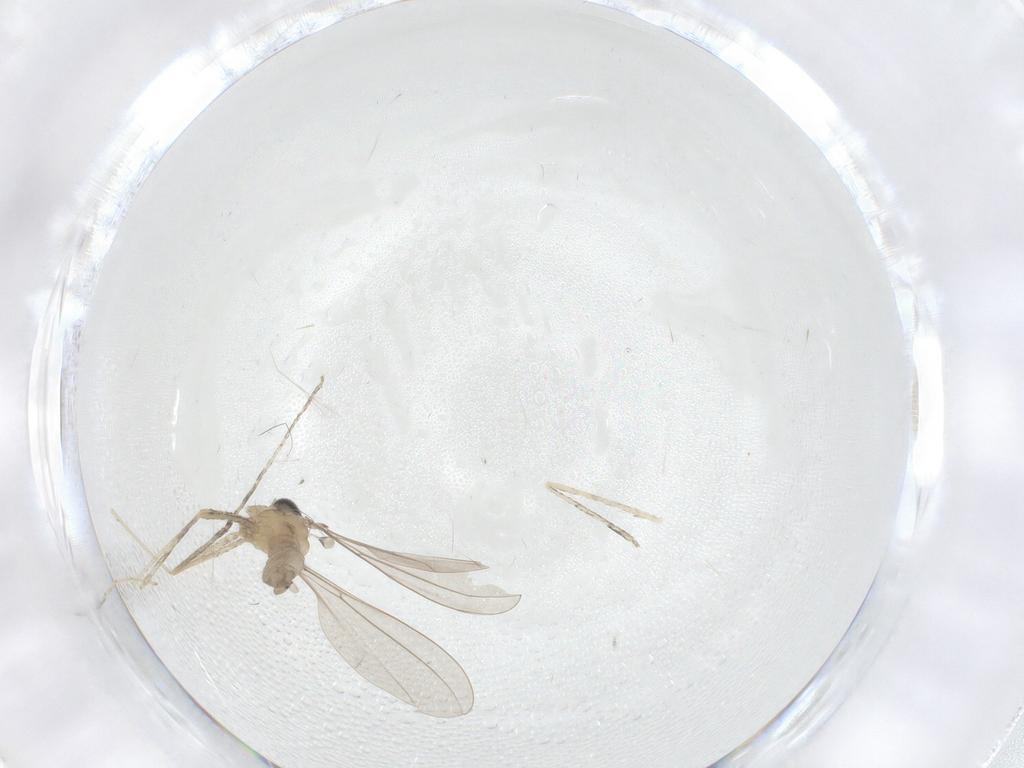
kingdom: Animalia
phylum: Arthropoda
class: Insecta
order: Diptera
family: Cecidomyiidae
